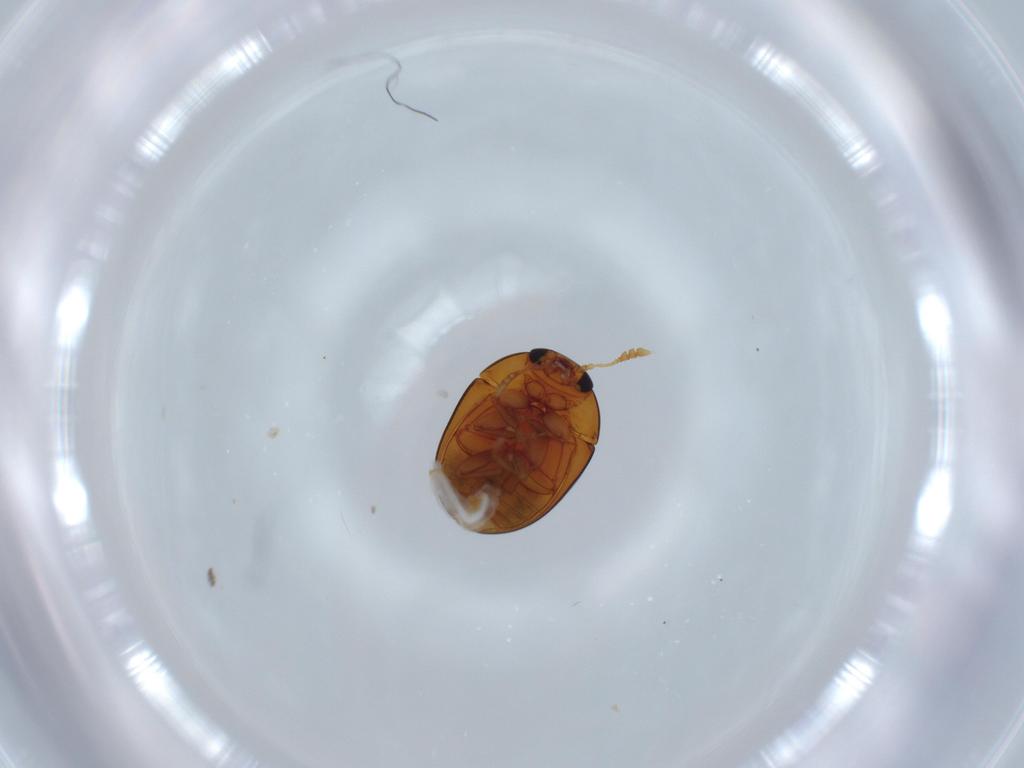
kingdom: Animalia
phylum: Arthropoda
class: Insecta
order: Coleoptera
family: Phalacridae
